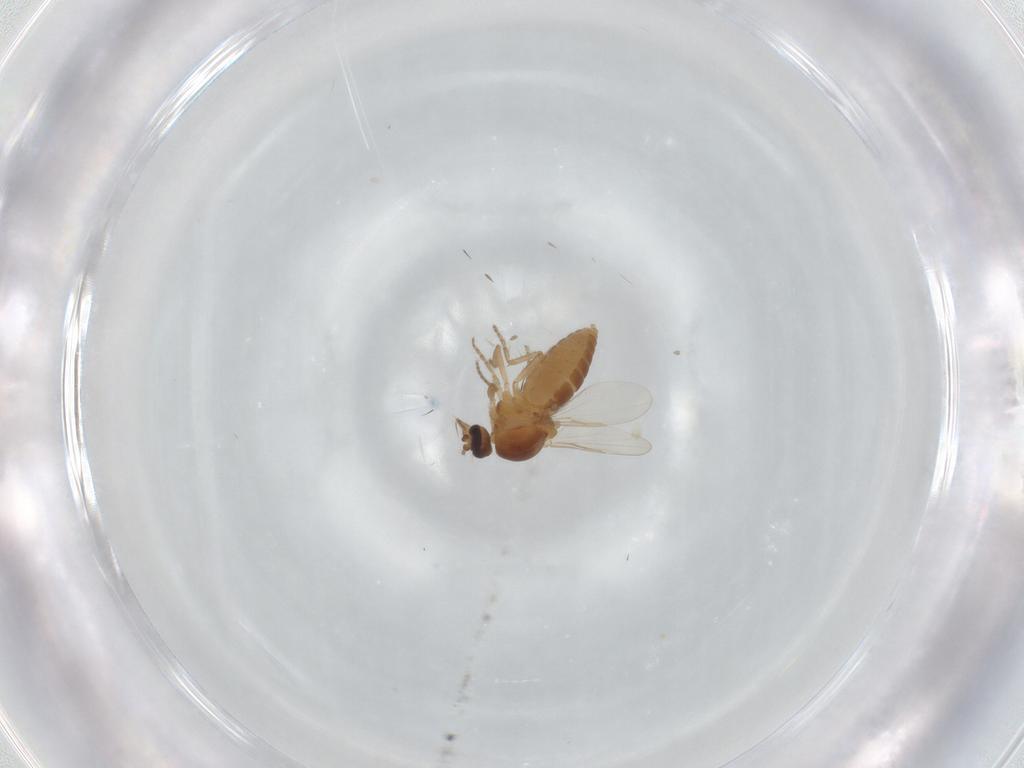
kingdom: Animalia
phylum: Arthropoda
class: Insecta
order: Diptera
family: Ceratopogonidae
